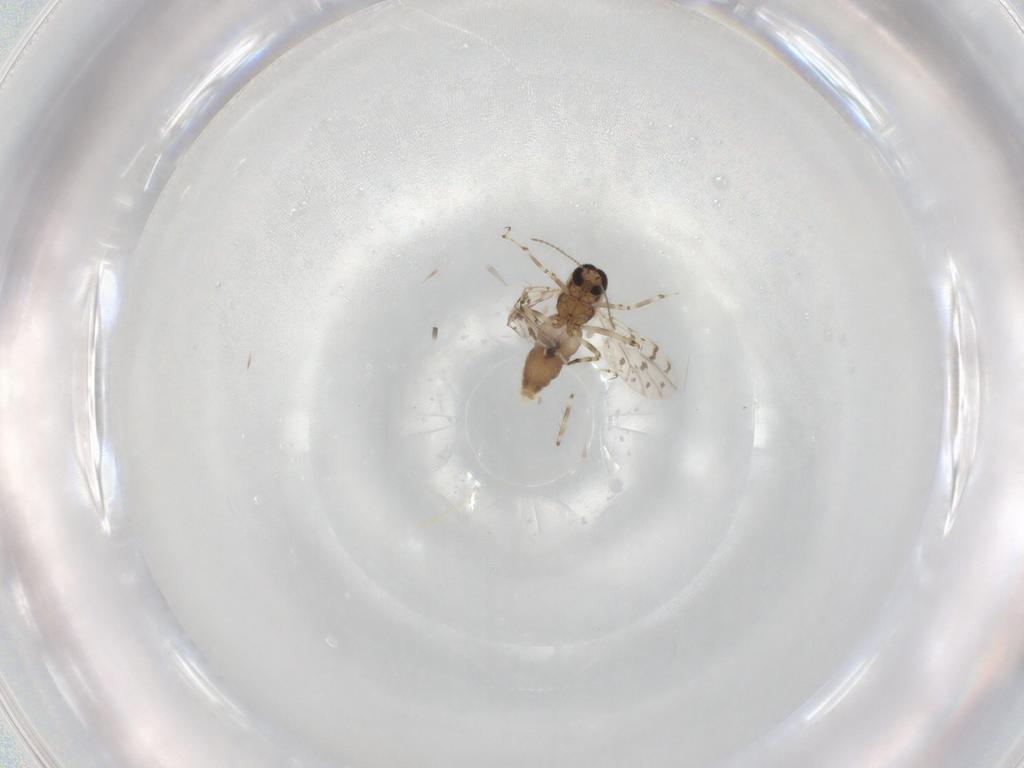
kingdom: Animalia
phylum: Arthropoda
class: Insecta
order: Diptera
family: Ceratopogonidae
